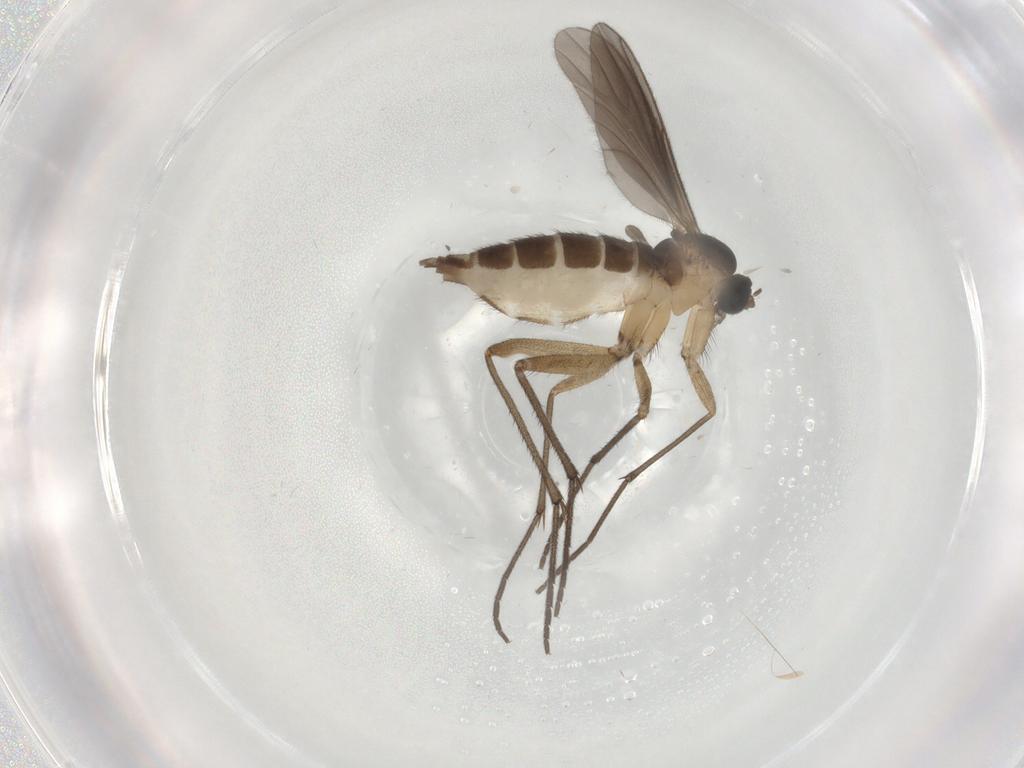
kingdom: Animalia
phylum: Arthropoda
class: Insecta
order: Diptera
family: Sciaridae
